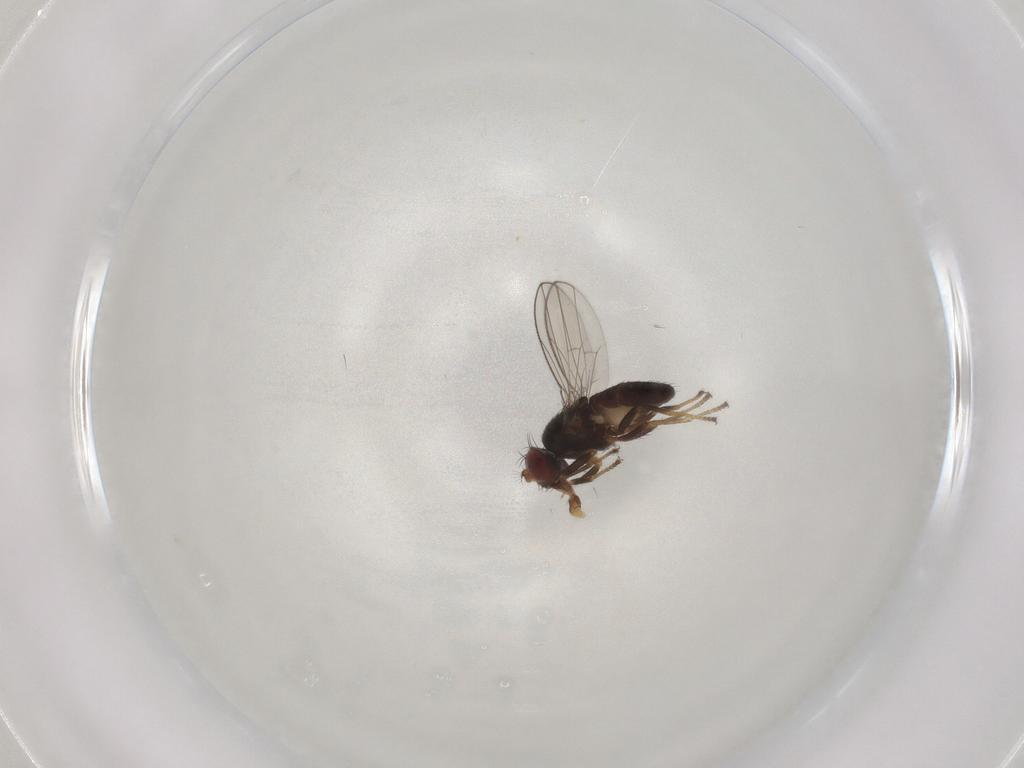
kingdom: Animalia
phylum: Arthropoda
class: Insecta
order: Diptera
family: Ephydridae
